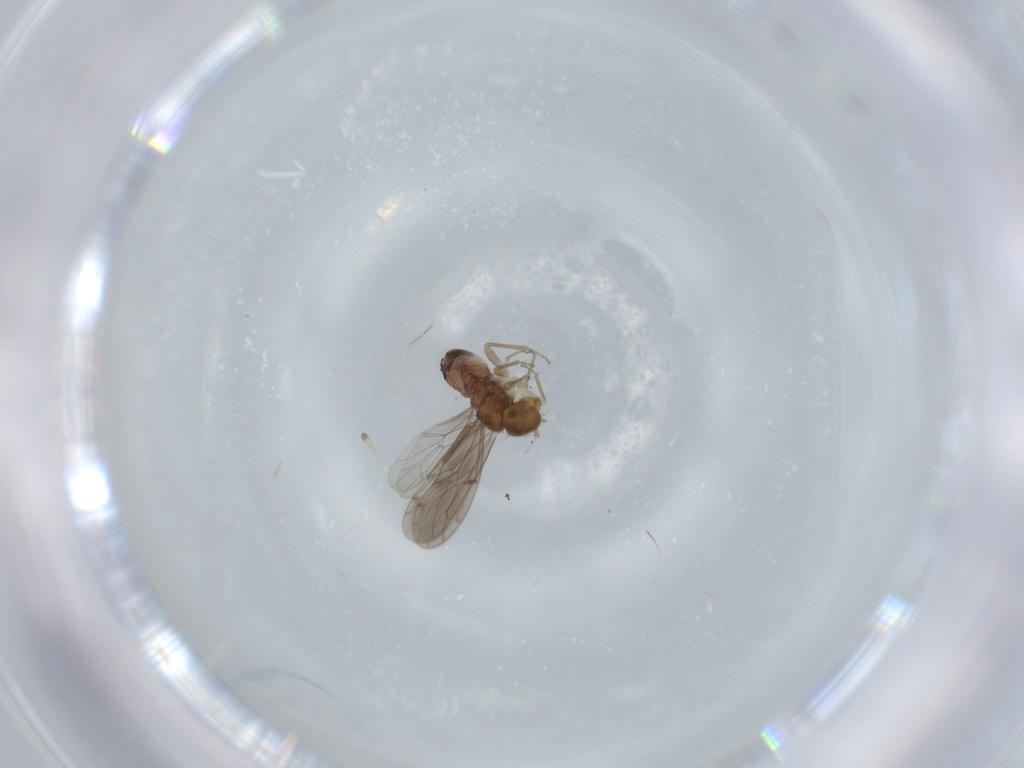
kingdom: Animalia
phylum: Arthropoda
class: Insecta
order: Psocodea
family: Ectopsocidae
